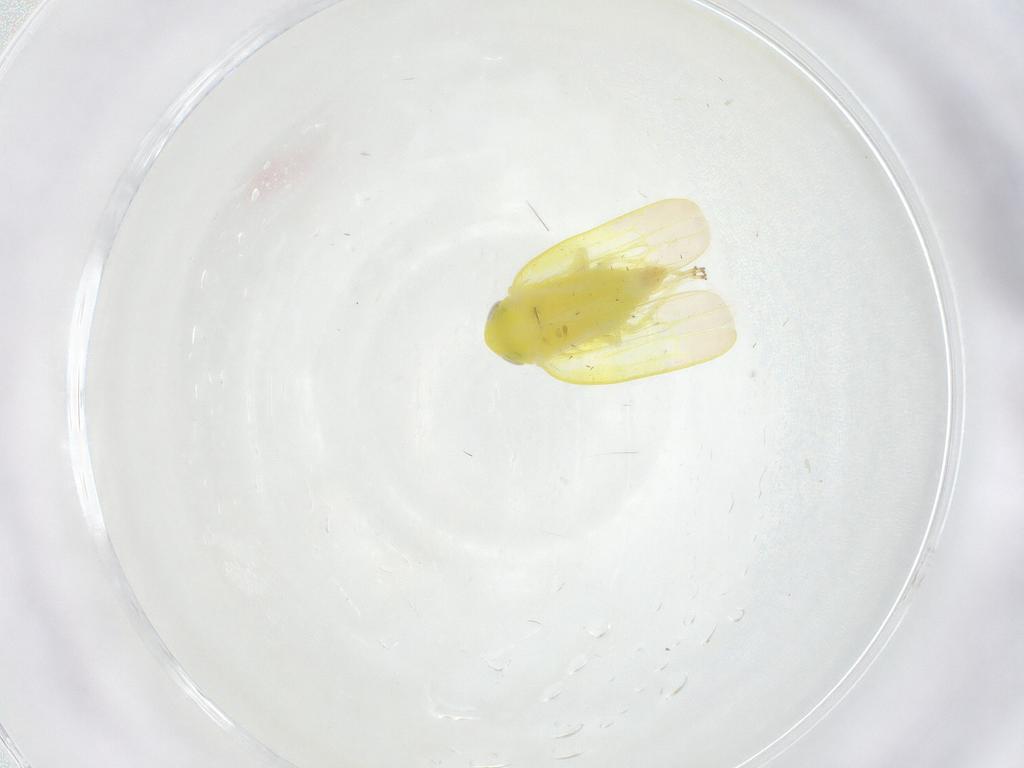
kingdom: Animalia
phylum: Arthropoda
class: Insecta
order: Hemiptera
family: Cicadellidae
